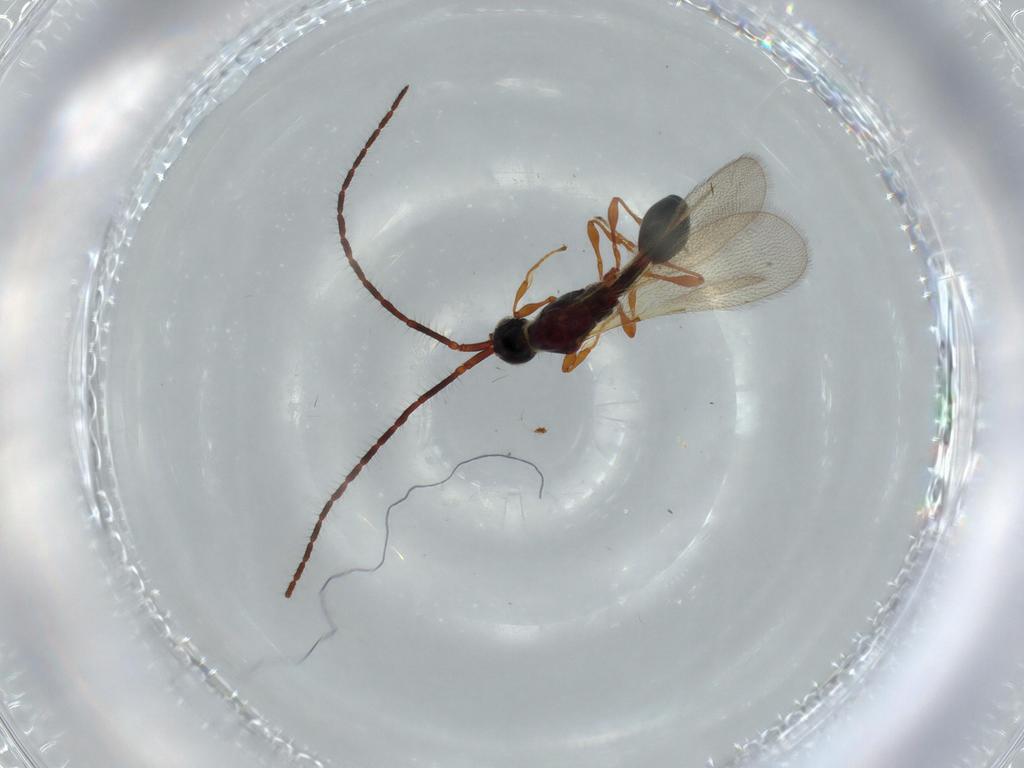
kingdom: Animalia
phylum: Arthropoda
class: Insecta
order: Hymenoptera
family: Diapriidae
